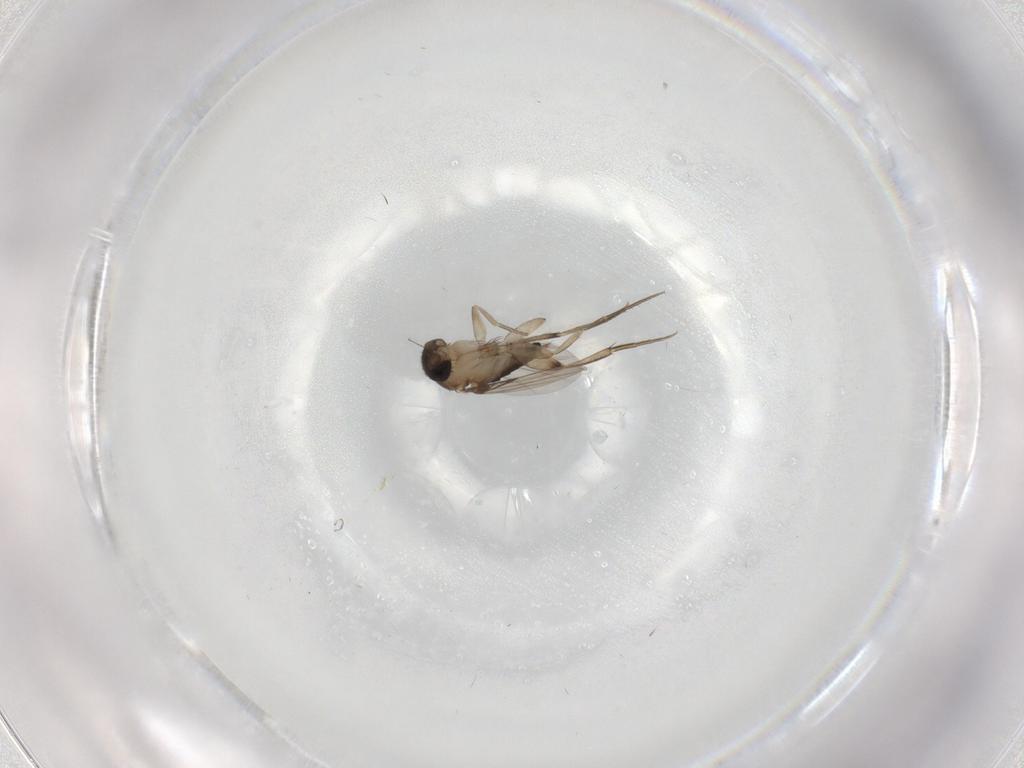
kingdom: Animalia
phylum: Arthropoda
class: Insecta
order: Diptera
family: Phoridae
